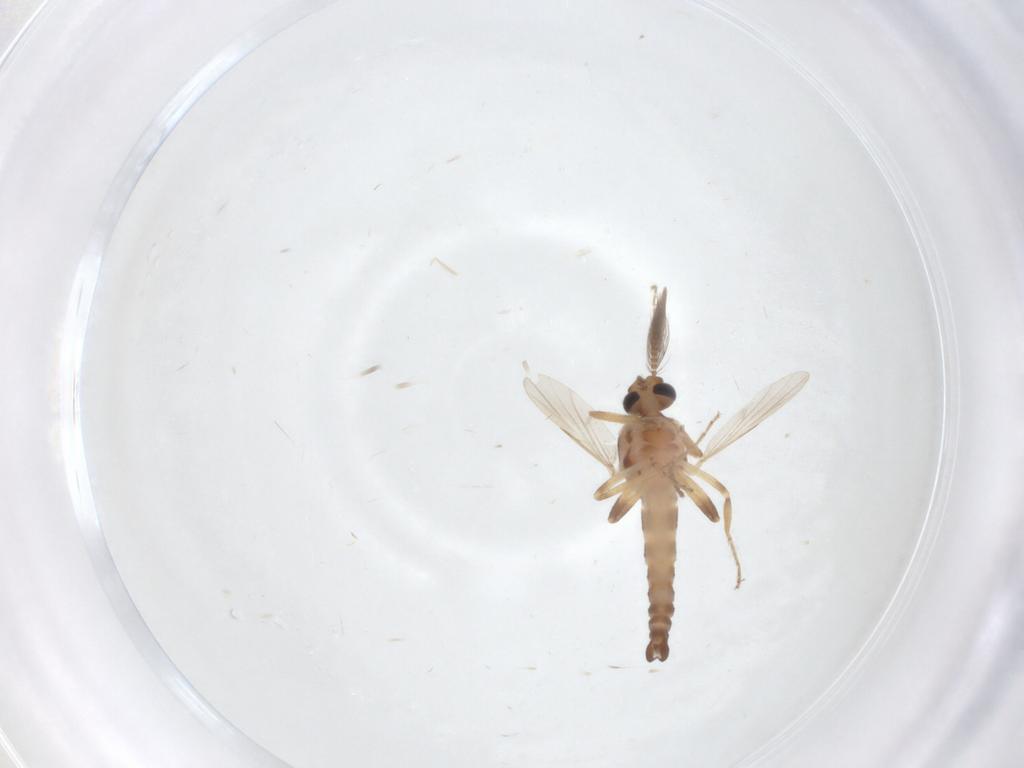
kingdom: Animalia
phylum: Arthropoda
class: Insecta
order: Diptera
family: Ceratopogonidae
